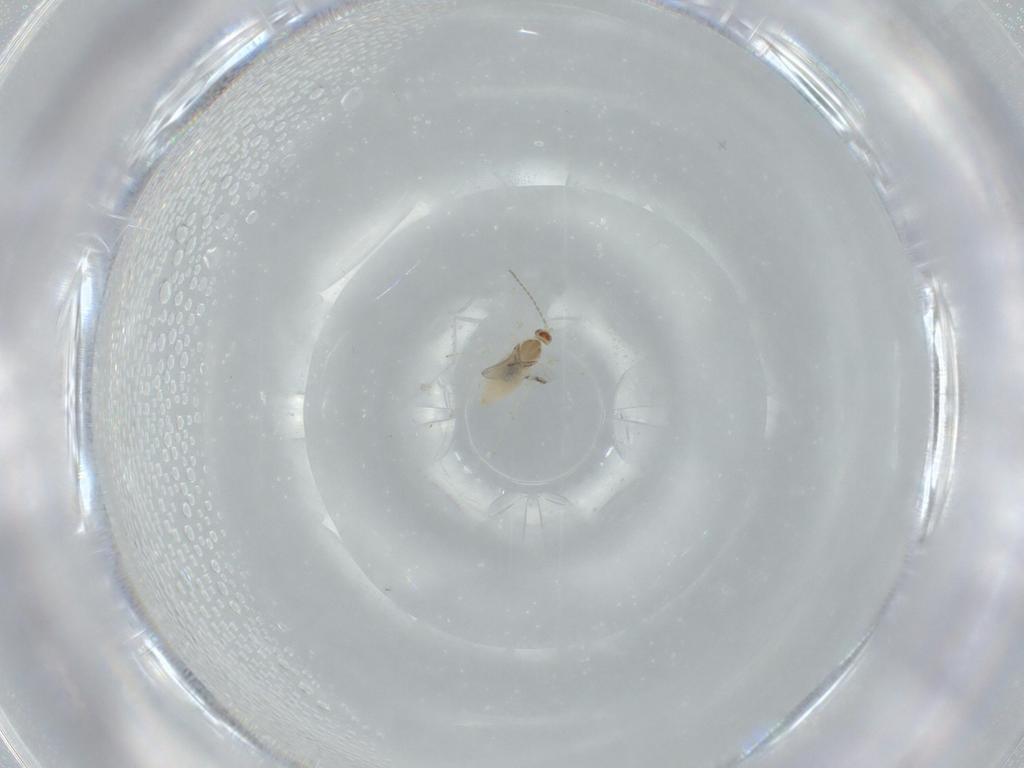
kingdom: Animalia
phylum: Arthropoda
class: Insecta
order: Diptera
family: Cecidomyiidae
